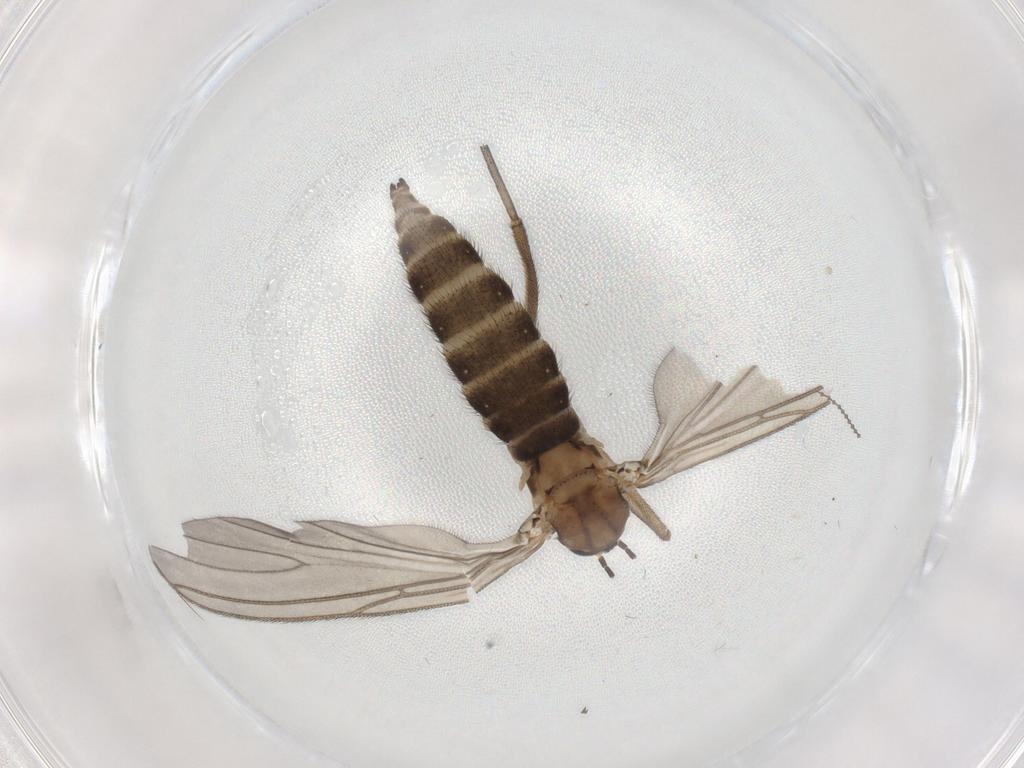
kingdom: Animalia
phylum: Arthropoda
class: Insecta
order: Diptera
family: Sciaridae
